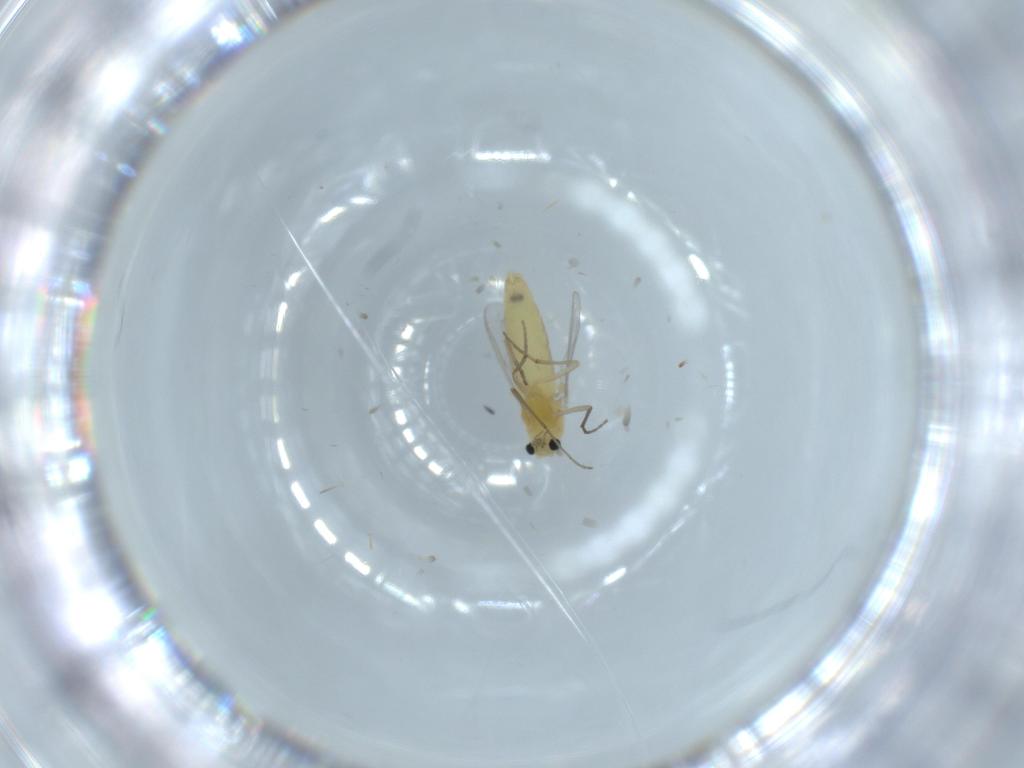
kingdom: Animalia
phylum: Arthropoda
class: Insecta
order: Diptera
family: Chironomidae
